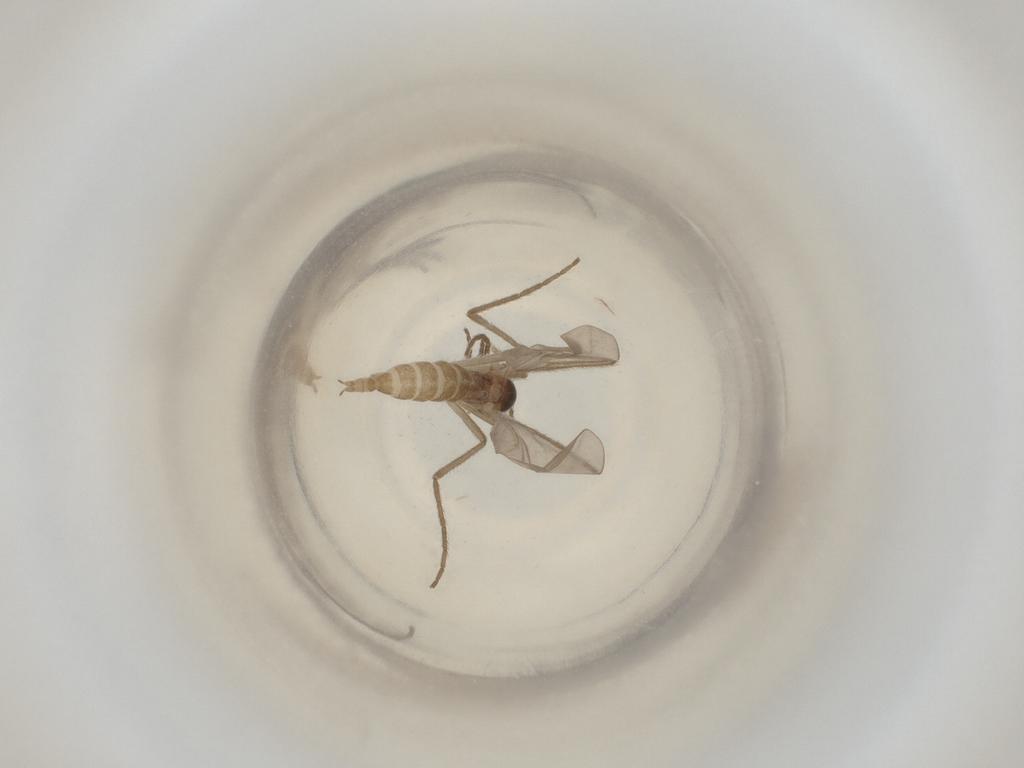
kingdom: Animalia
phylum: Arthropoda
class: Insecta
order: Diptera
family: Cecidomyiidae
